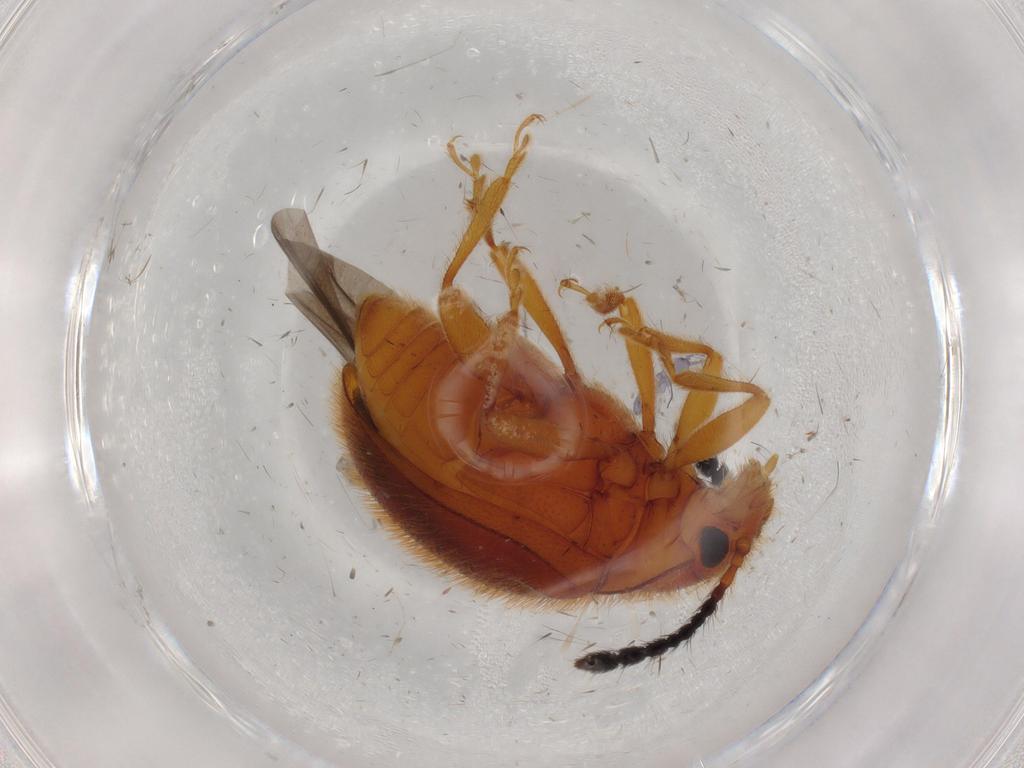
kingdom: Animalia
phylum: Arthropoda
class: Insecta
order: Coleoptera
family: Endomychidae
